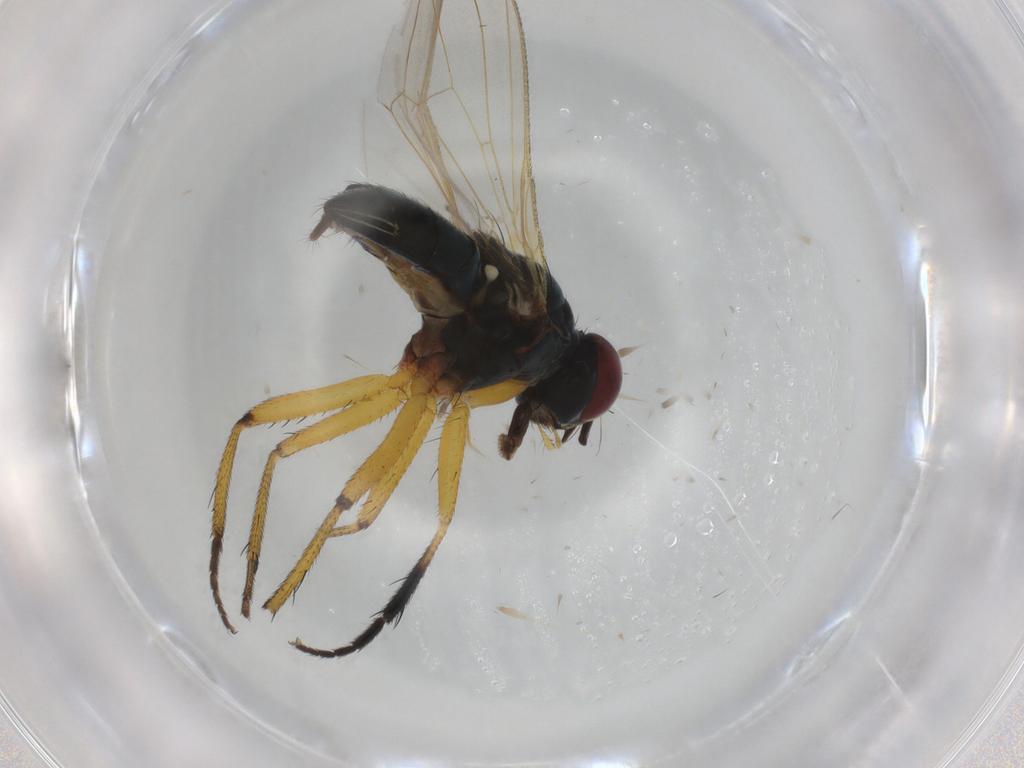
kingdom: Animalia
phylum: Arthropoda
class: Insecta
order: Diptera
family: Muscidae
